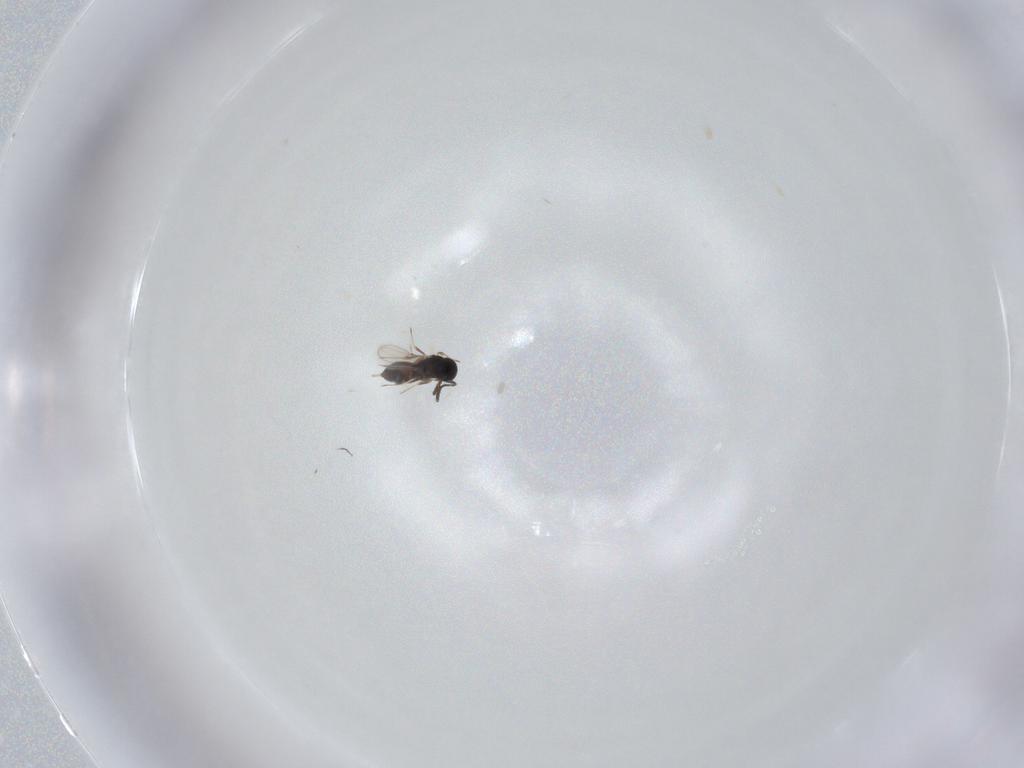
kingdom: Animalia
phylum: Arthropoda
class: Insecta
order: Hymenoptera
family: Scelionidae
